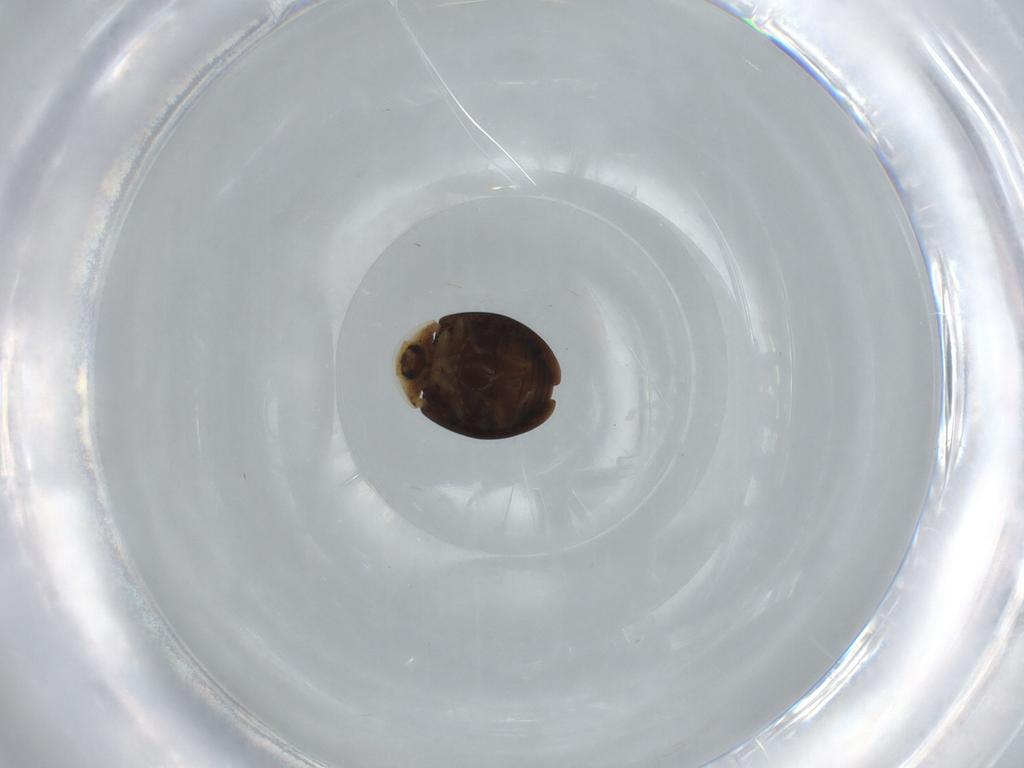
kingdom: Animalia
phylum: Arthropoda
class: Insecta
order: Coleoptera
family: Corylophidae
